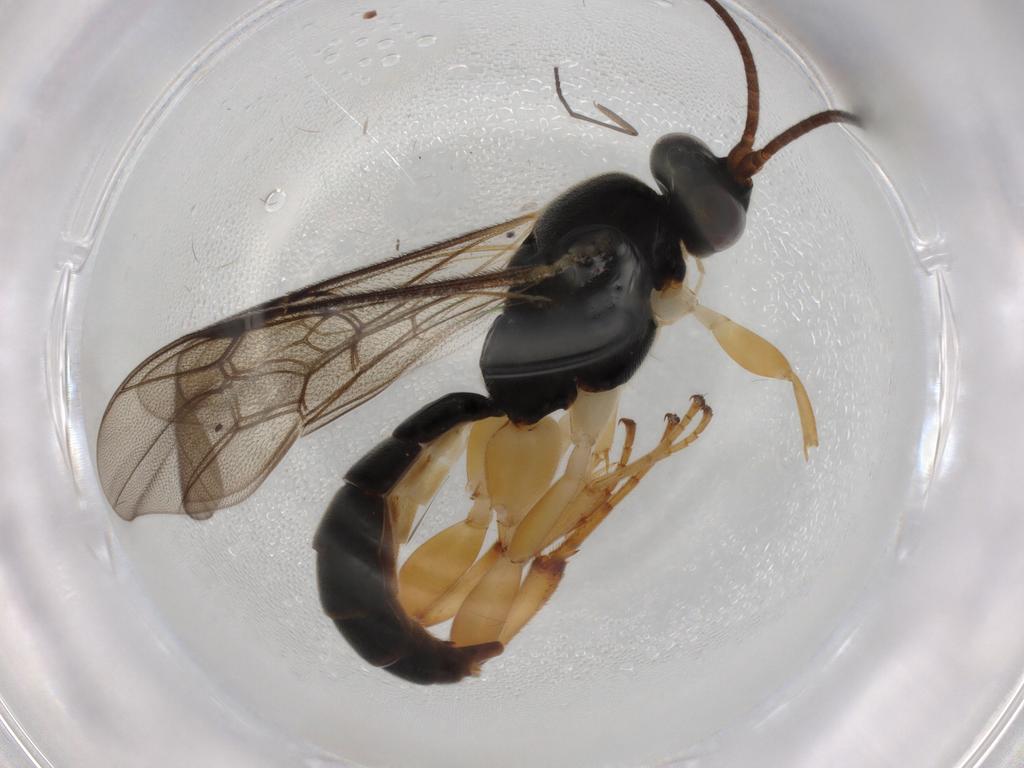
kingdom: Animalia
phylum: Arthropoda
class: Insecta
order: Hymenoptera
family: Ichneumonidae
